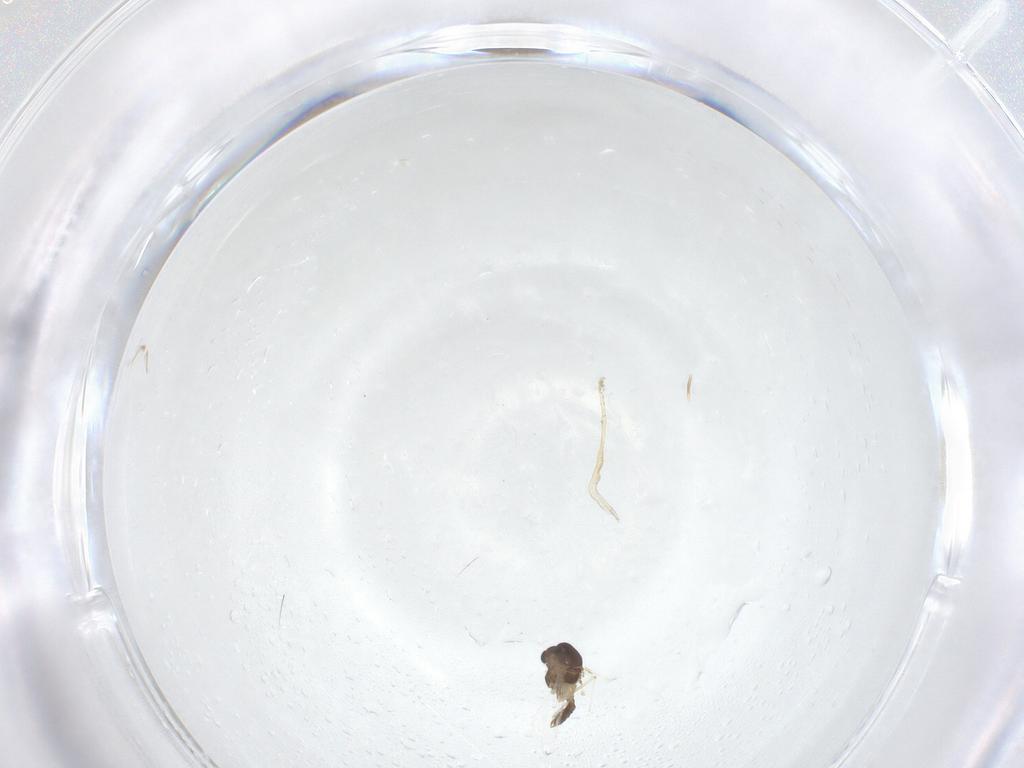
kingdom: Animalia
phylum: Arthropoda
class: Insecta
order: Diptera
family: Chironomidae
